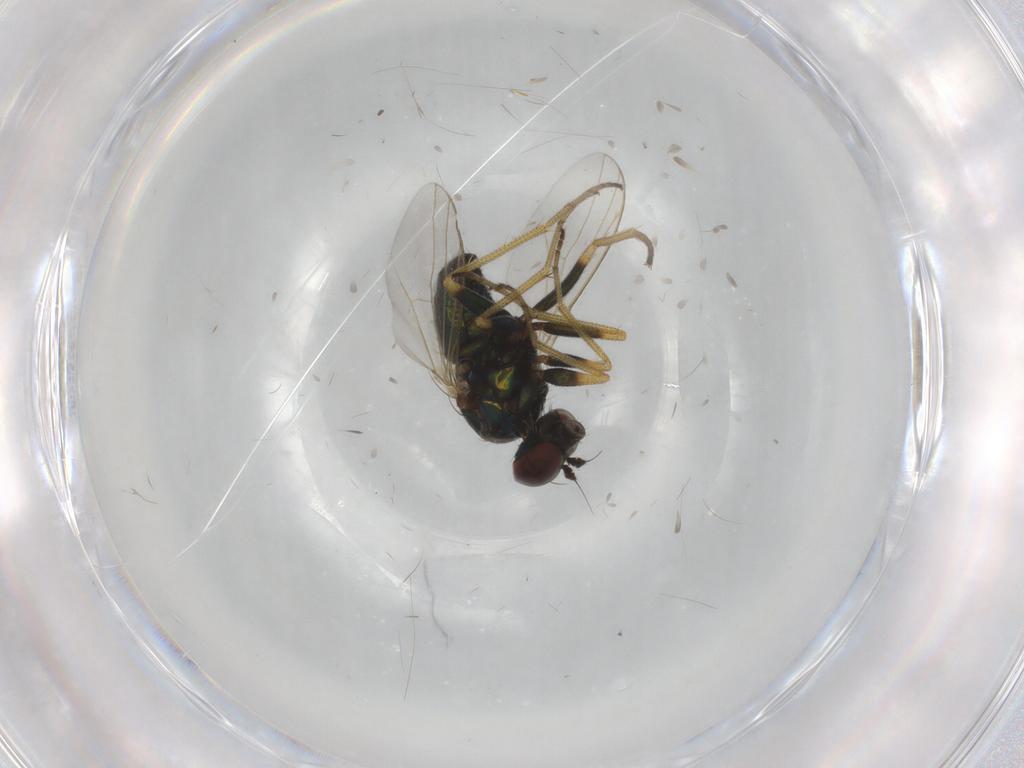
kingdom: Animalia
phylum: Arthropoda
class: Insecta
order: Diptera
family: Dolichopodidae
